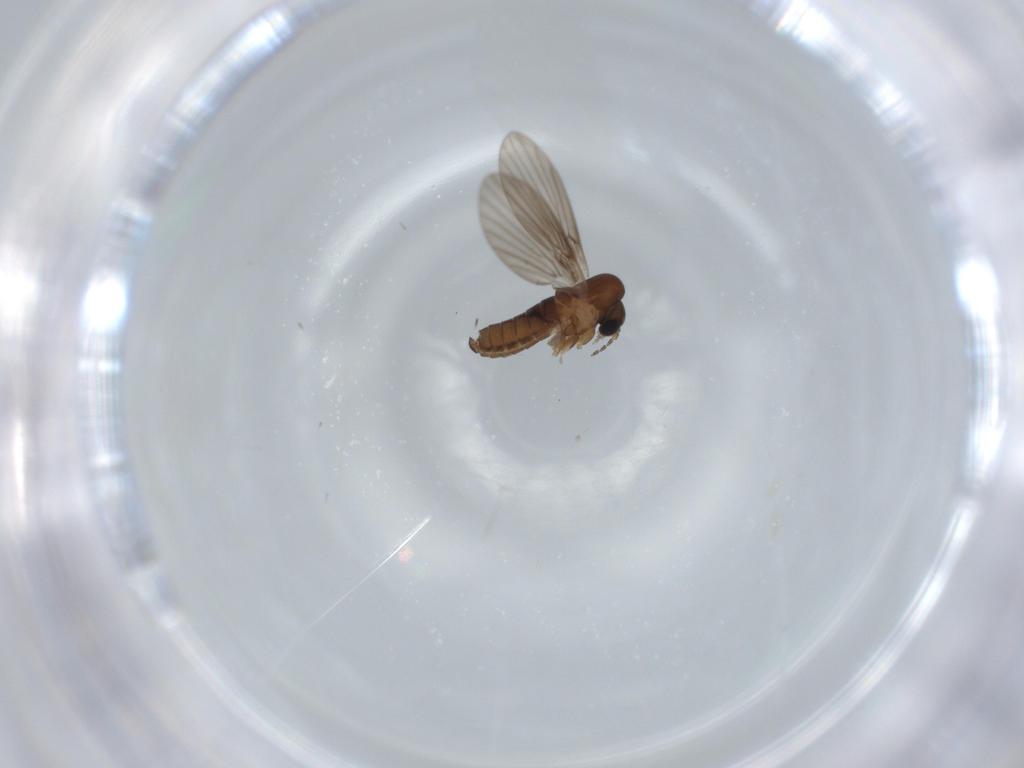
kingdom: Animalia
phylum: Arthropoda
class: Insecta
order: Diptera
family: Psychodidae
